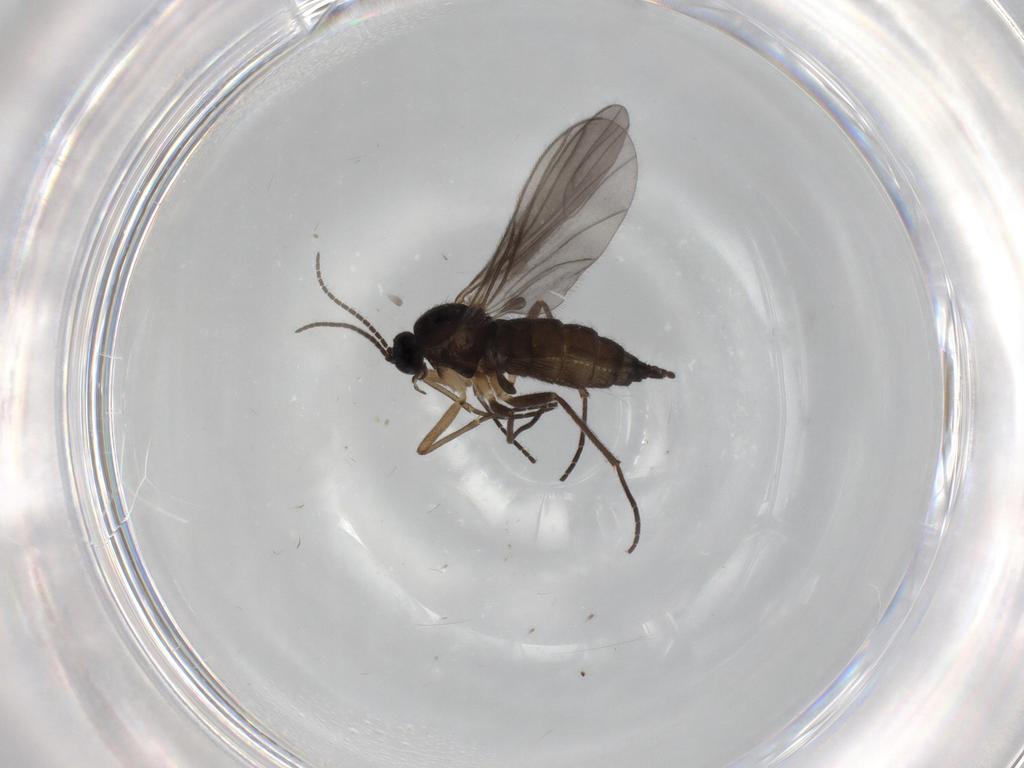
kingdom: Animalia
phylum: Arthropoda
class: Insecta
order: Diptera
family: Sciaridae
